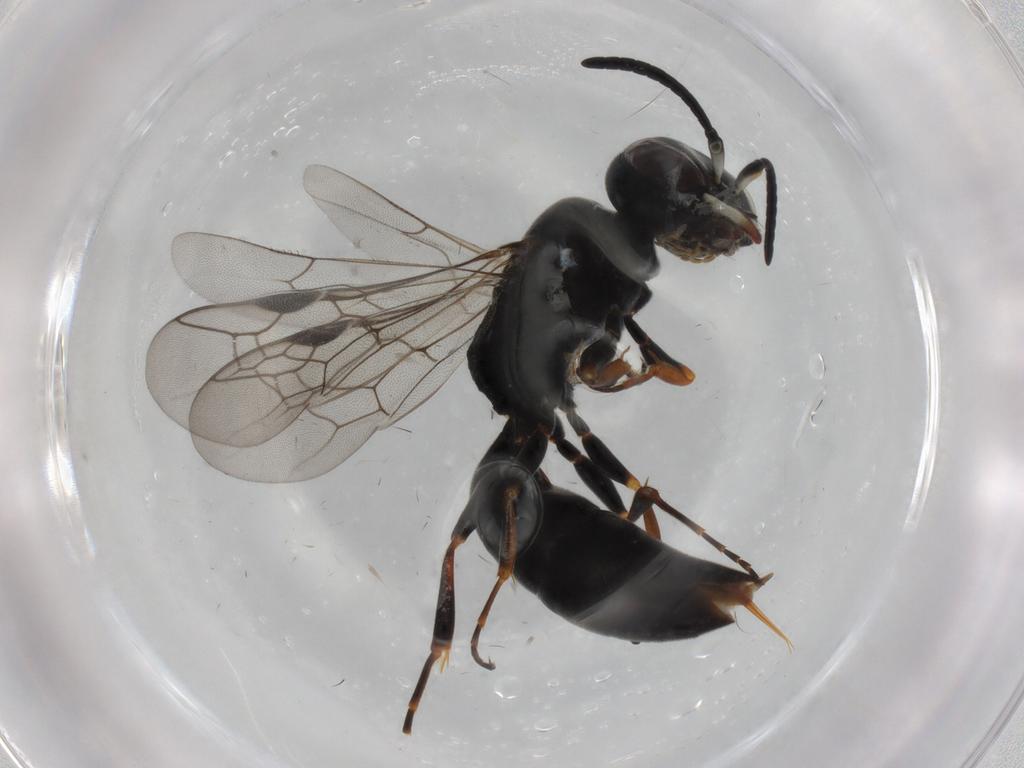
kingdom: Animalia
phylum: Arthropoda
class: Insecta
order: Hymenoptera
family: Crabronidae
